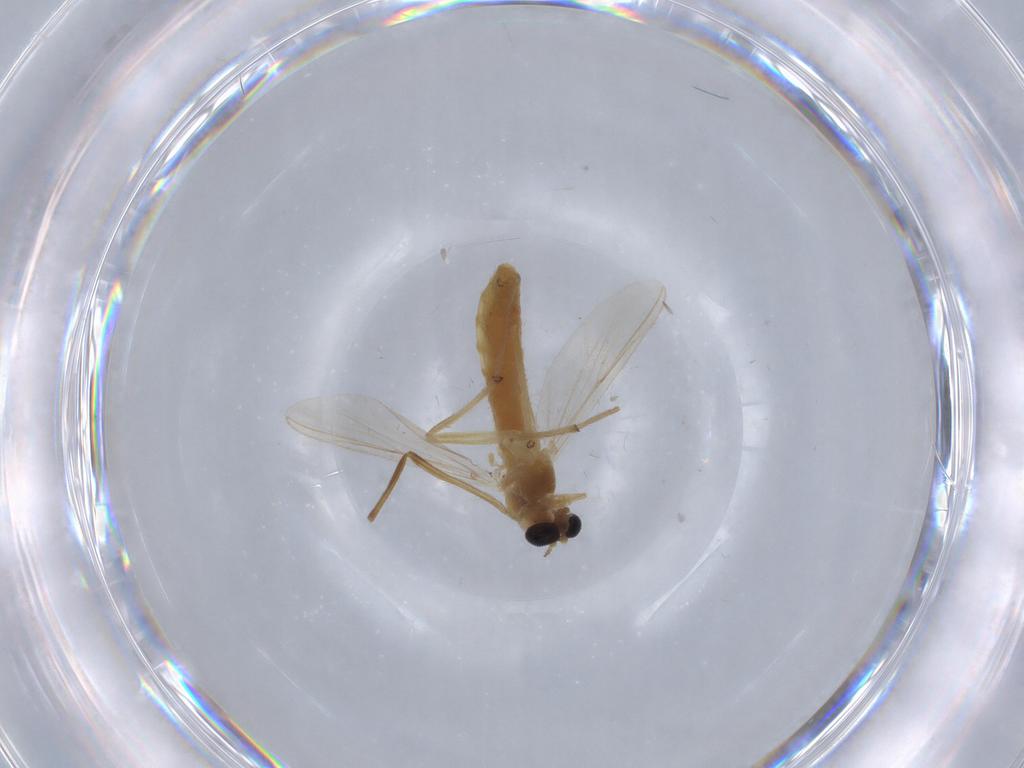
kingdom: Animalia
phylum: Arthropoda
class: Insecta
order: Diptera
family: Chironomidae
